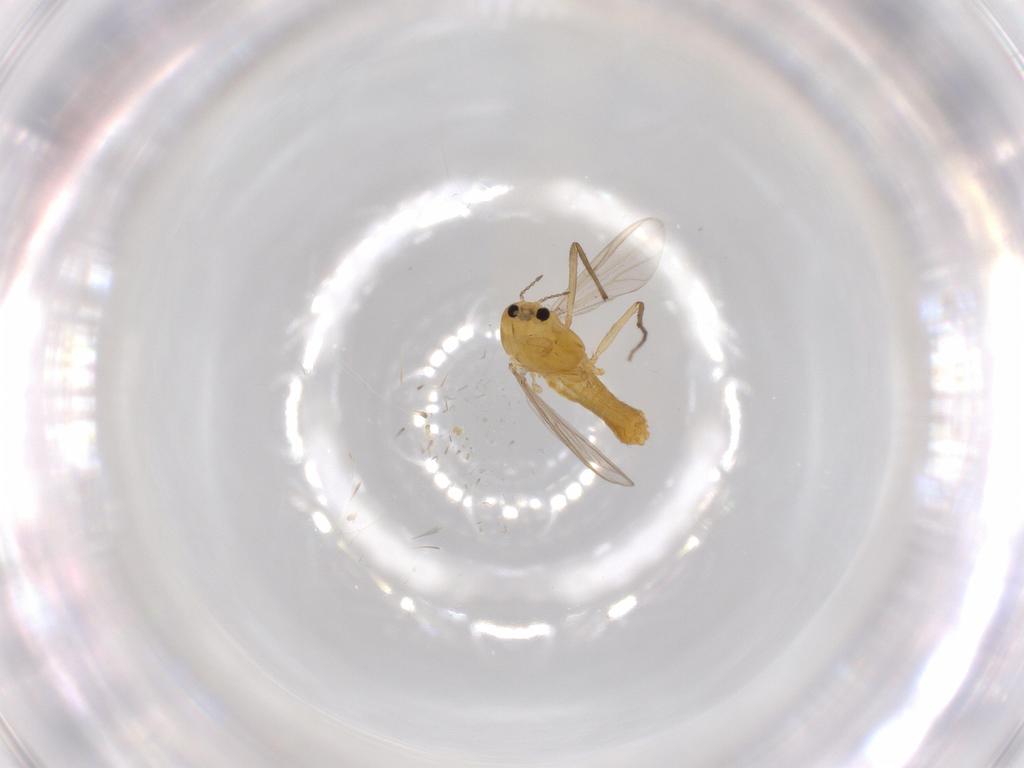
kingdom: Animalia
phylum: Arthropoda
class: Insecta
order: Diptera
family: Chironomidae
